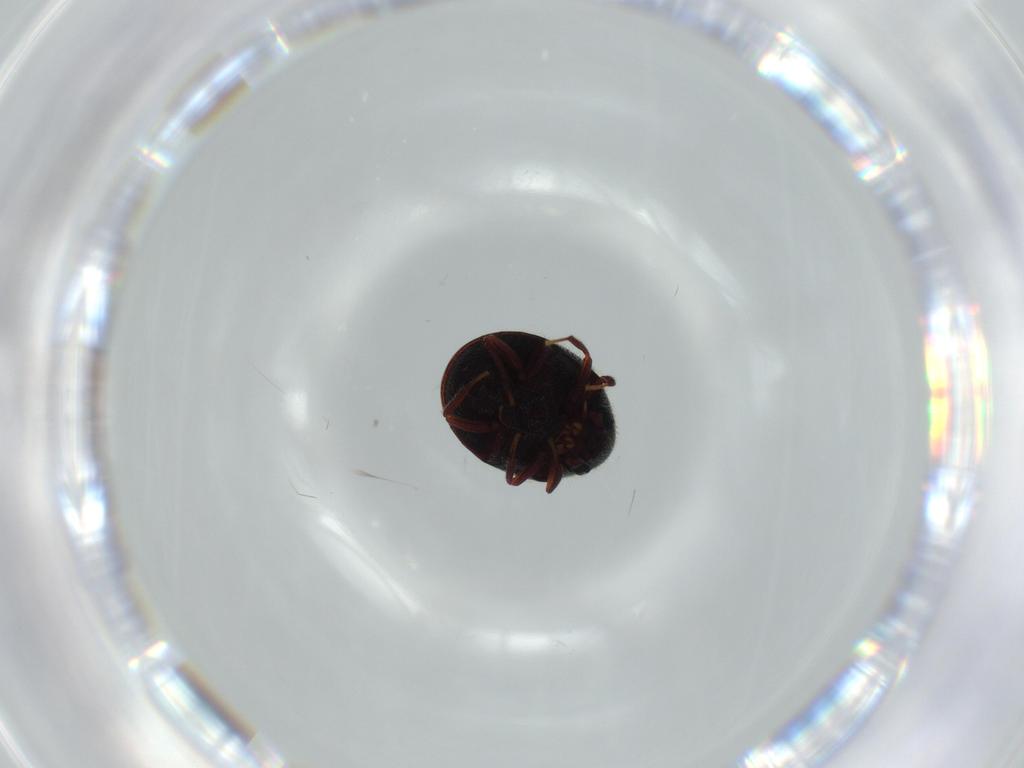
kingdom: Animalia
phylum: Arthropoda
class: Insecta
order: Coleoptera
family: Ptinidae
